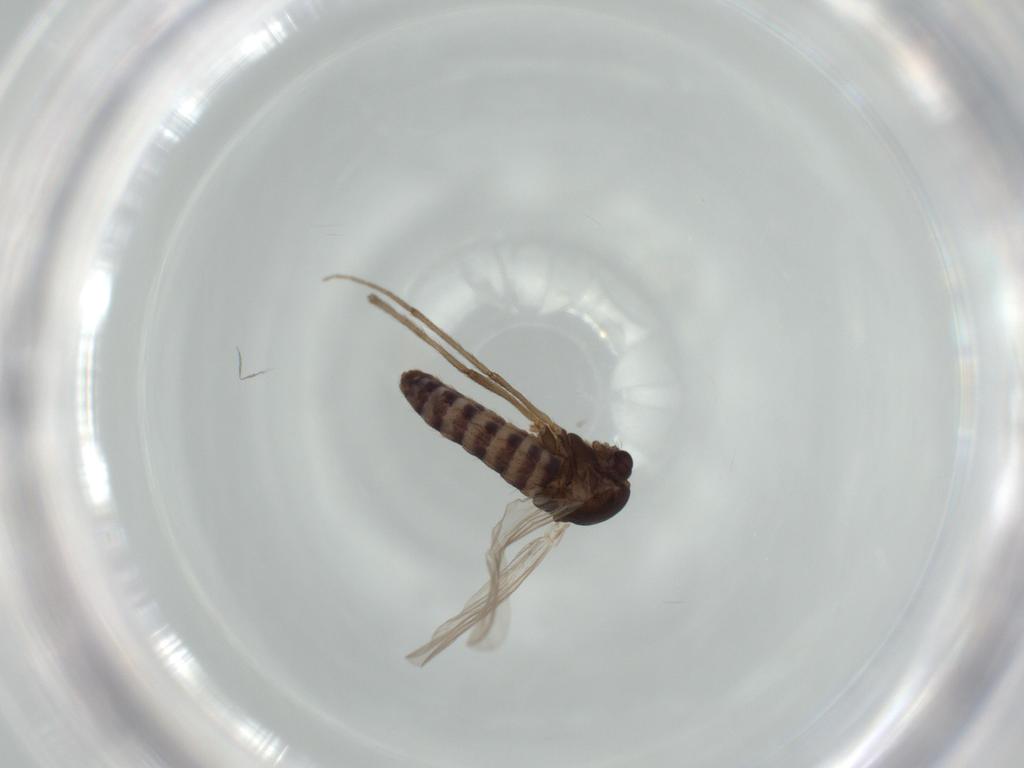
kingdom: Animalia
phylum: Arthropoda
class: Insecta
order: Diptera
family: Chironomidae
